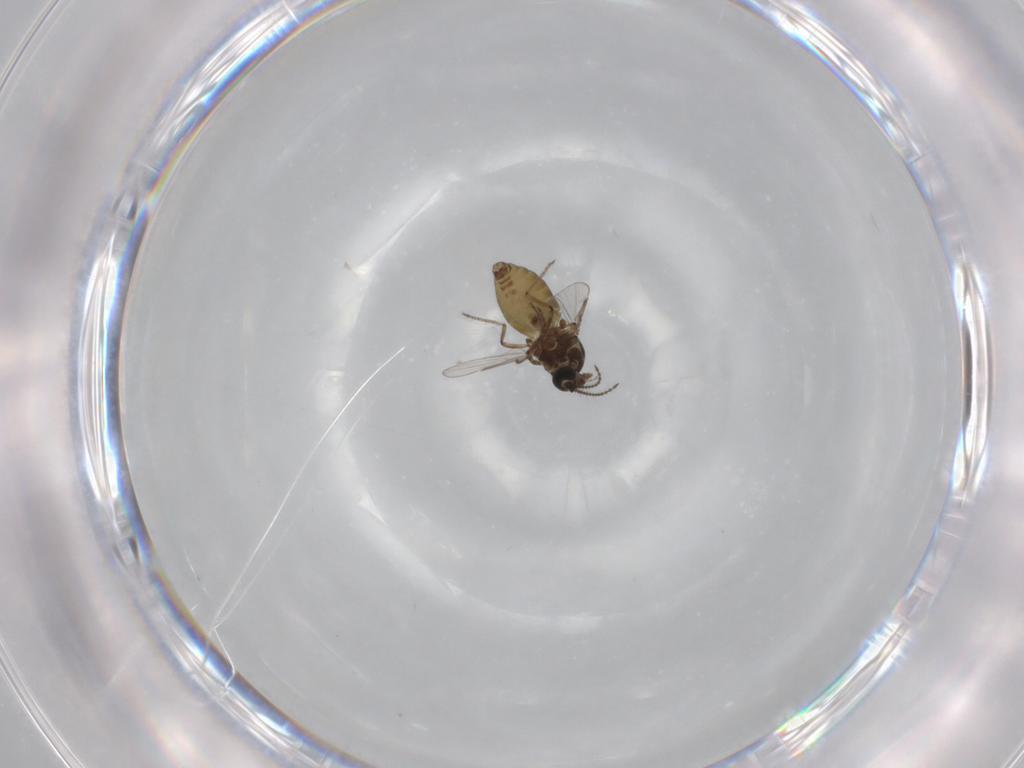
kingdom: Animalia
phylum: Arthropoda
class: Insecta
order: Diptera
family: Ceratopogonidae
